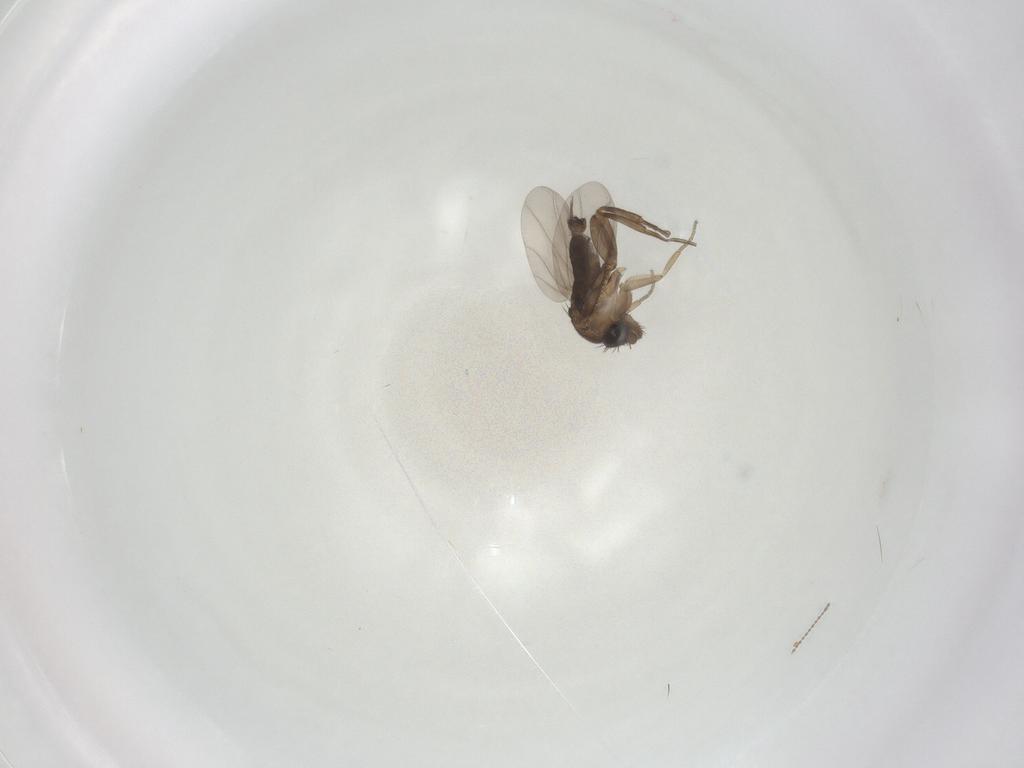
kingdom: Animalia
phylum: Arthropoda
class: Insecta
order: Diptera
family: Phoridae
